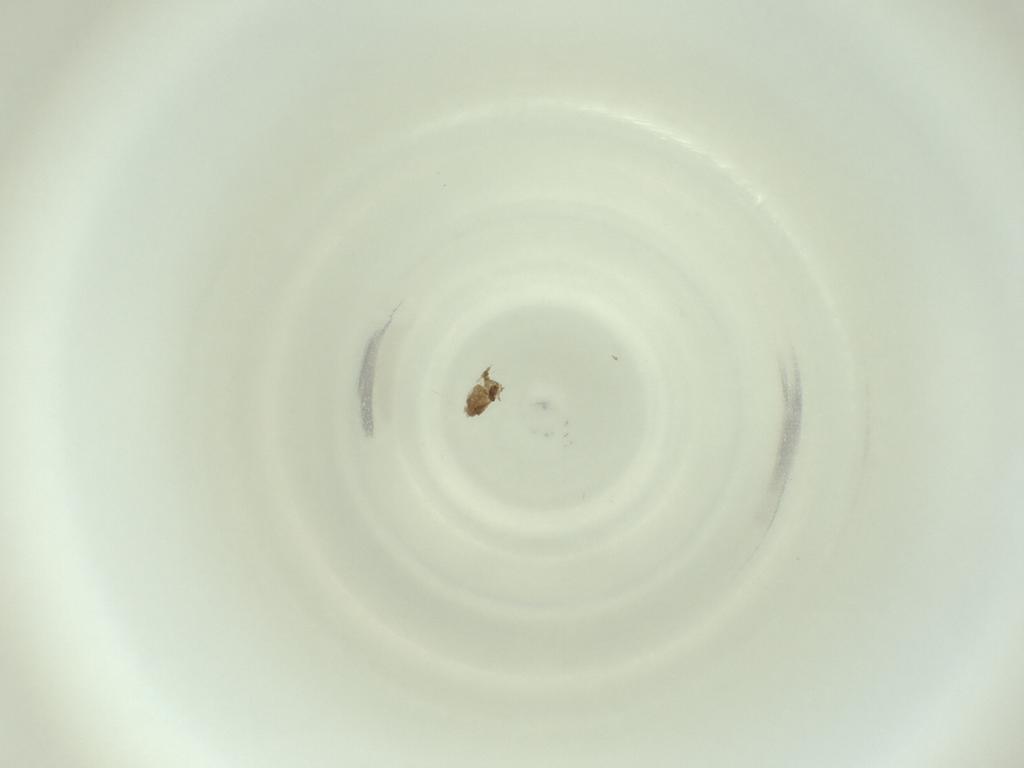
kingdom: Animalia
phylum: Arthropoda
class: Insecta
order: Diptera
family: Cecidomyiidae
